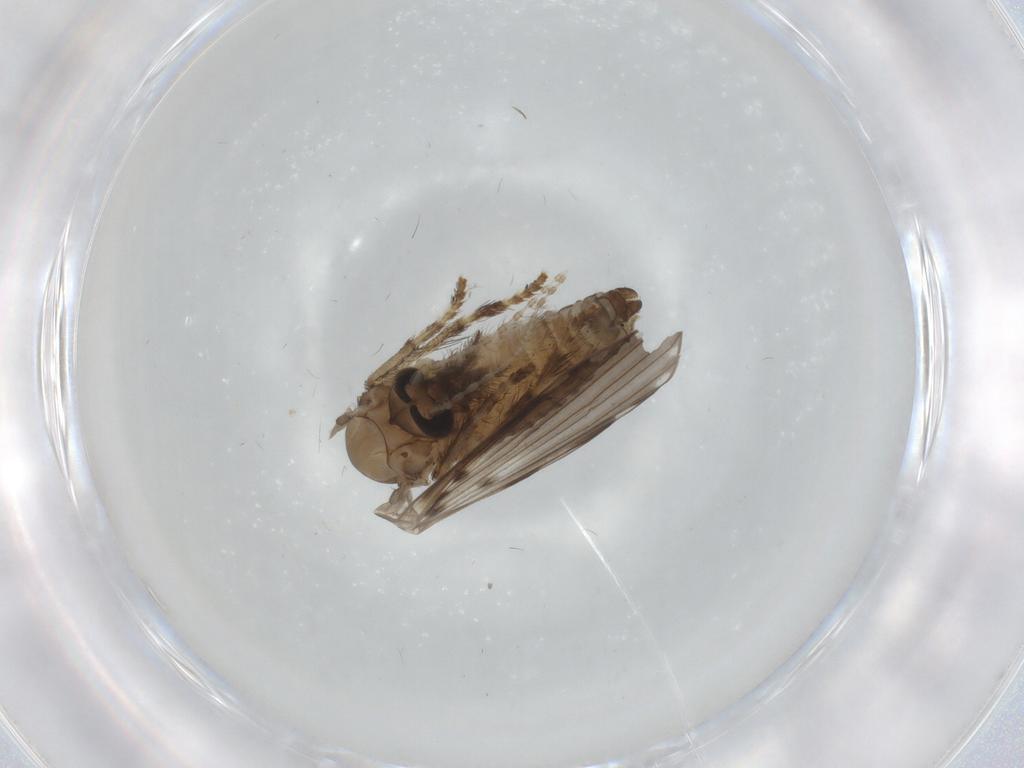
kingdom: Animalia
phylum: Arthropoda
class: Insecta
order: Diptera
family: Psychodidae
